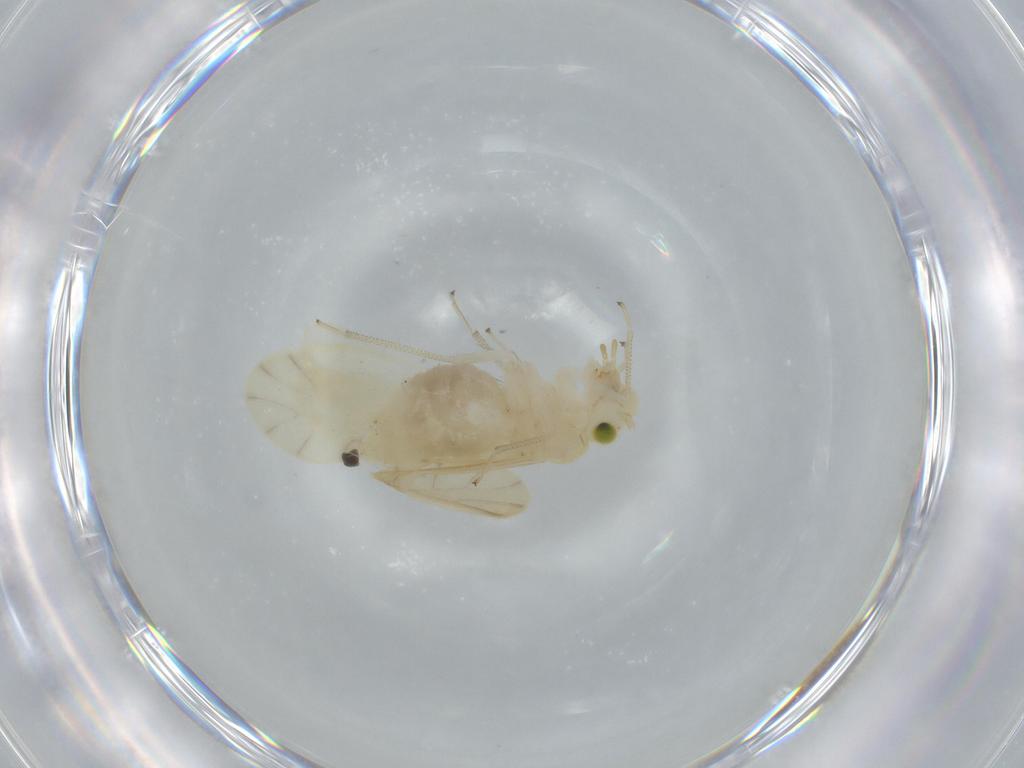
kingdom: Animalia
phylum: Arthropoda
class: Insecta
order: Psocodea
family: Caeciliusidae
